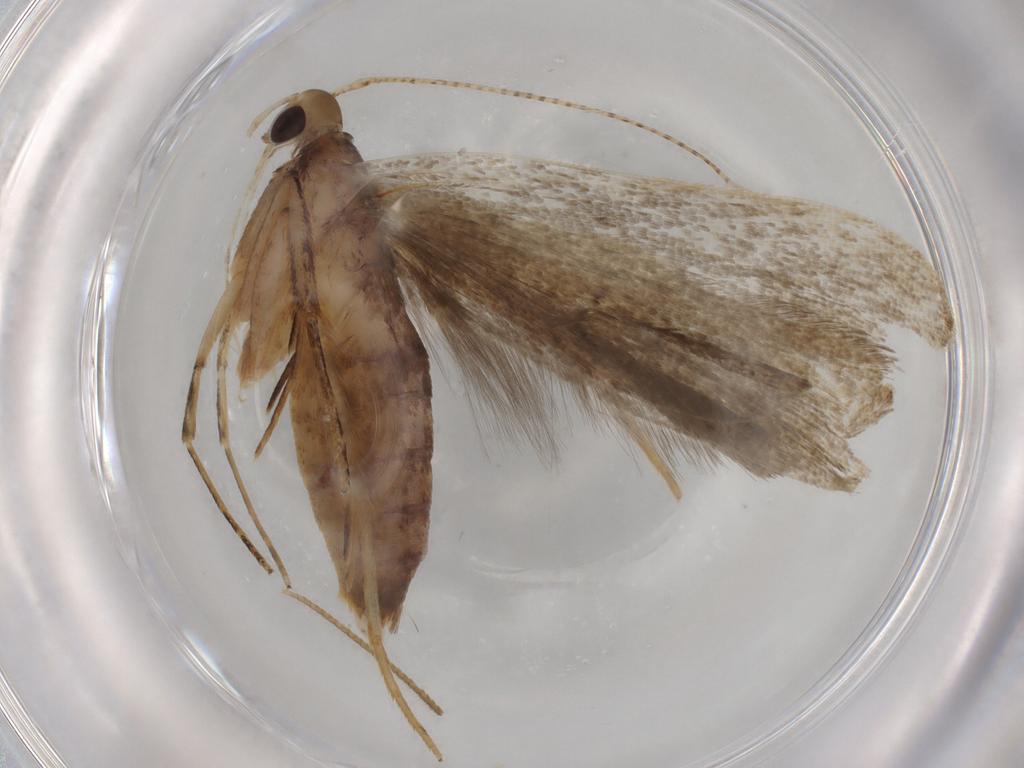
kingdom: Animalia
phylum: Arthropoda
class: Insecta
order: Lepidoptera
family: Gelechiidae
